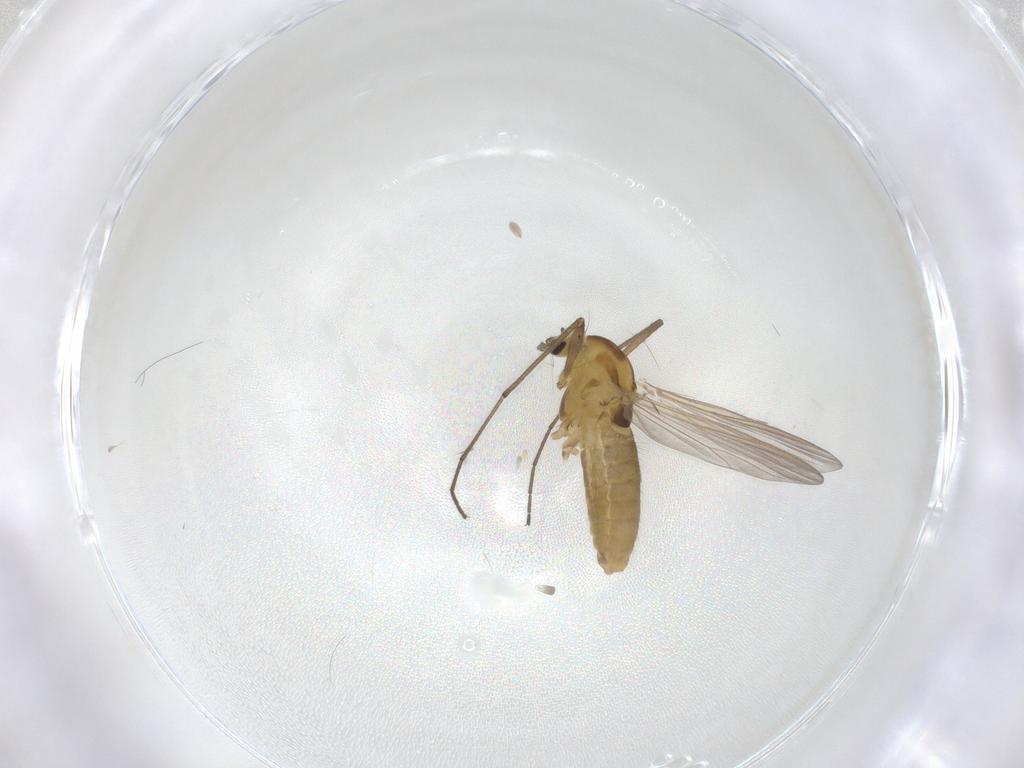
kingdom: Animalia
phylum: Arthropoda
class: Insecta
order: Diptera
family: Chironomidae
